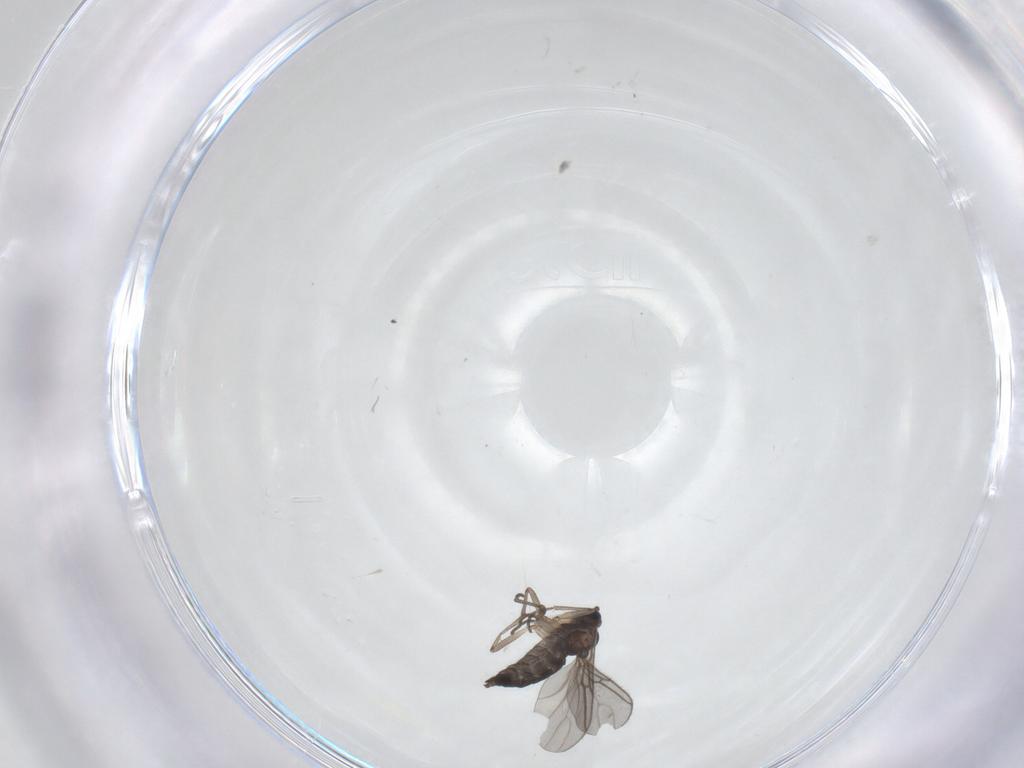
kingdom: Animalia
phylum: Arthropoda
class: Insecta
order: Diptera
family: Sciaridae
